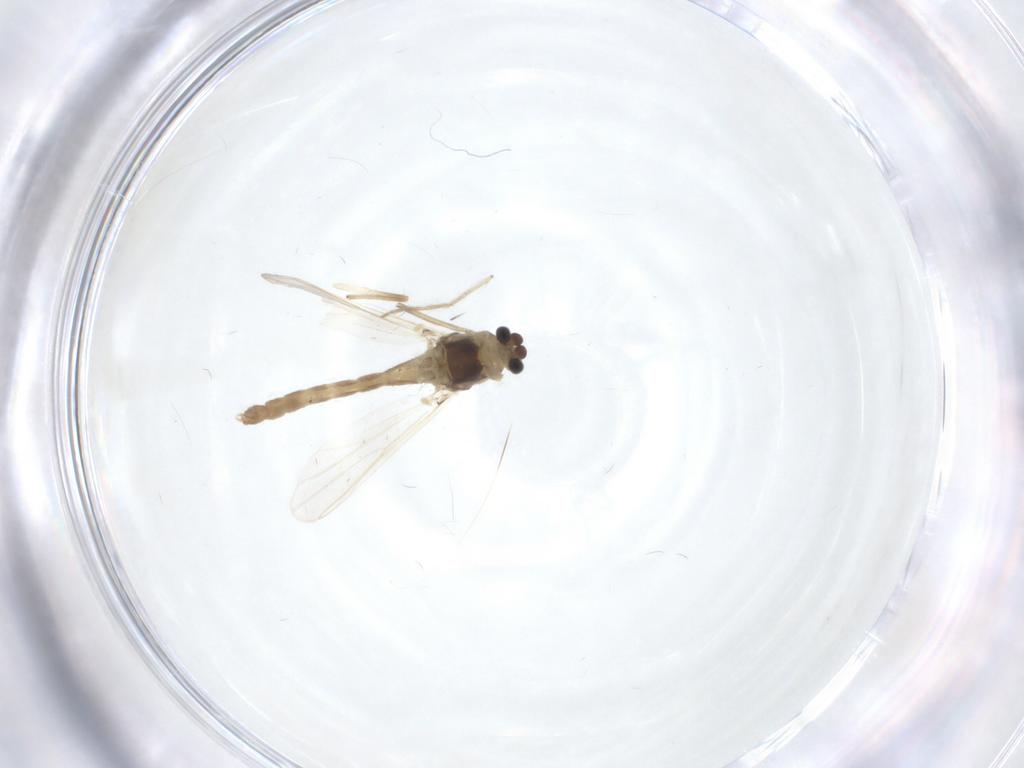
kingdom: Animalia
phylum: Arthropoda
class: Insecta
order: Diptera
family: Chironomidae
